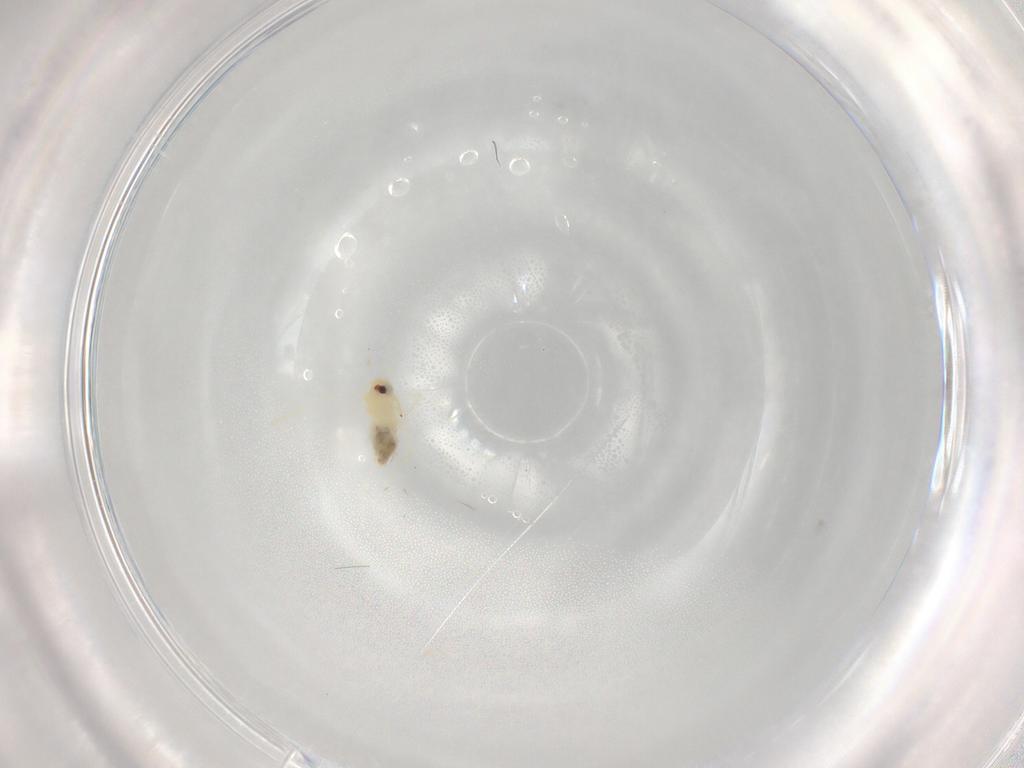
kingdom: Animalia
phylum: Arthropoda
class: Insecta
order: Hemiptera
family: Aleyrodidae
